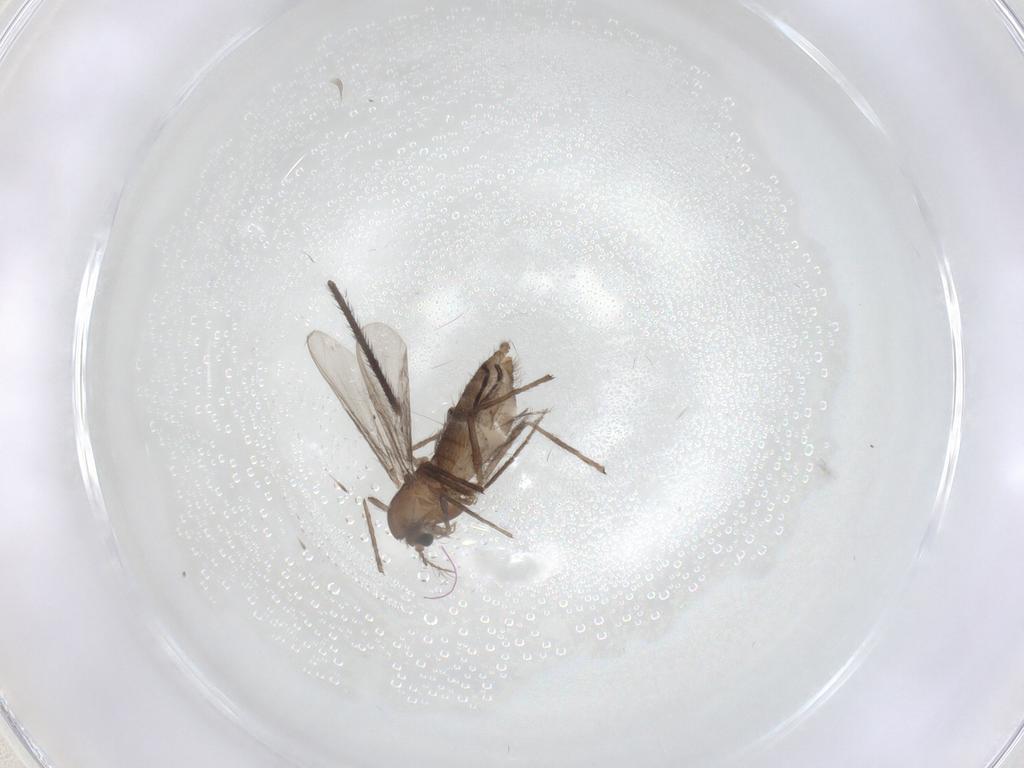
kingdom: Animalia
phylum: Arthropoda
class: Insecta
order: Diptera
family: Chironomidae
